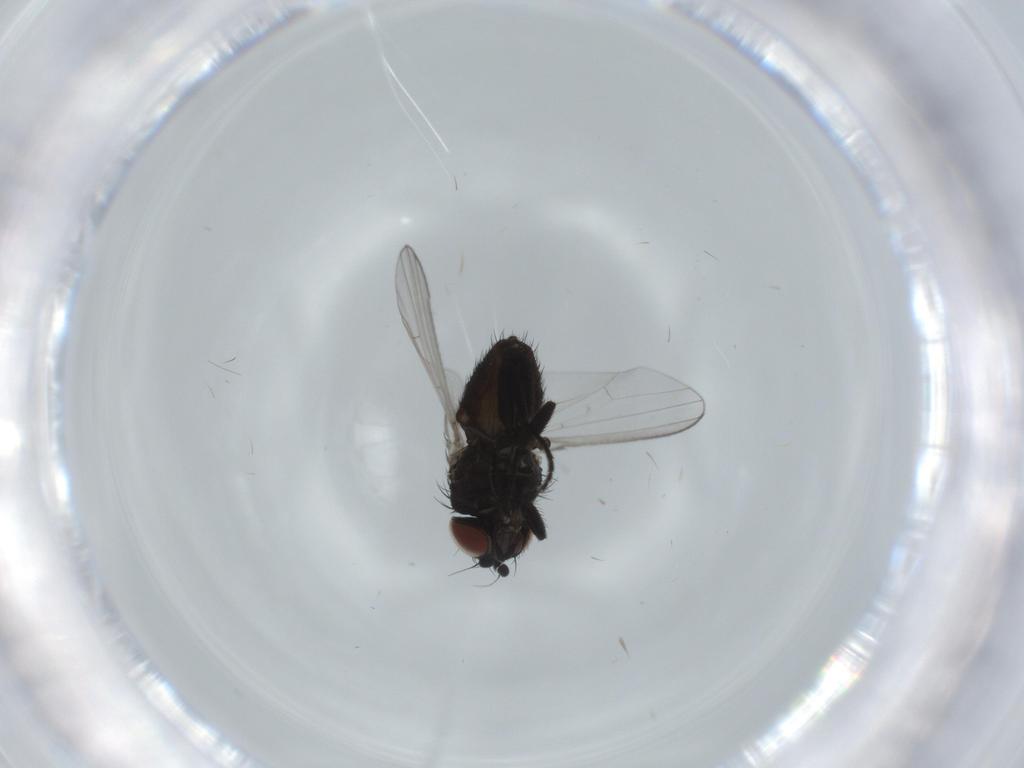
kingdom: Animalia
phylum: Arthropoda
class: Insecta
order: Diptera
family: Milichiidae
